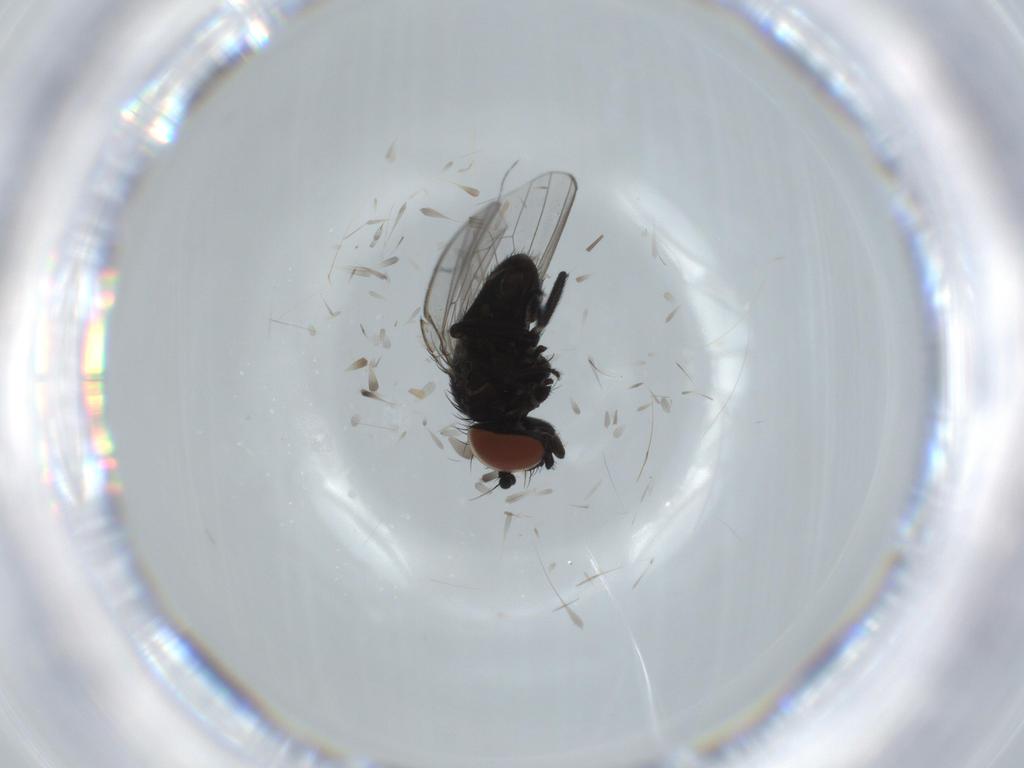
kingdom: Animalia
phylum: Arthropoda
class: Insecta
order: Diptera
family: Milichiidae
